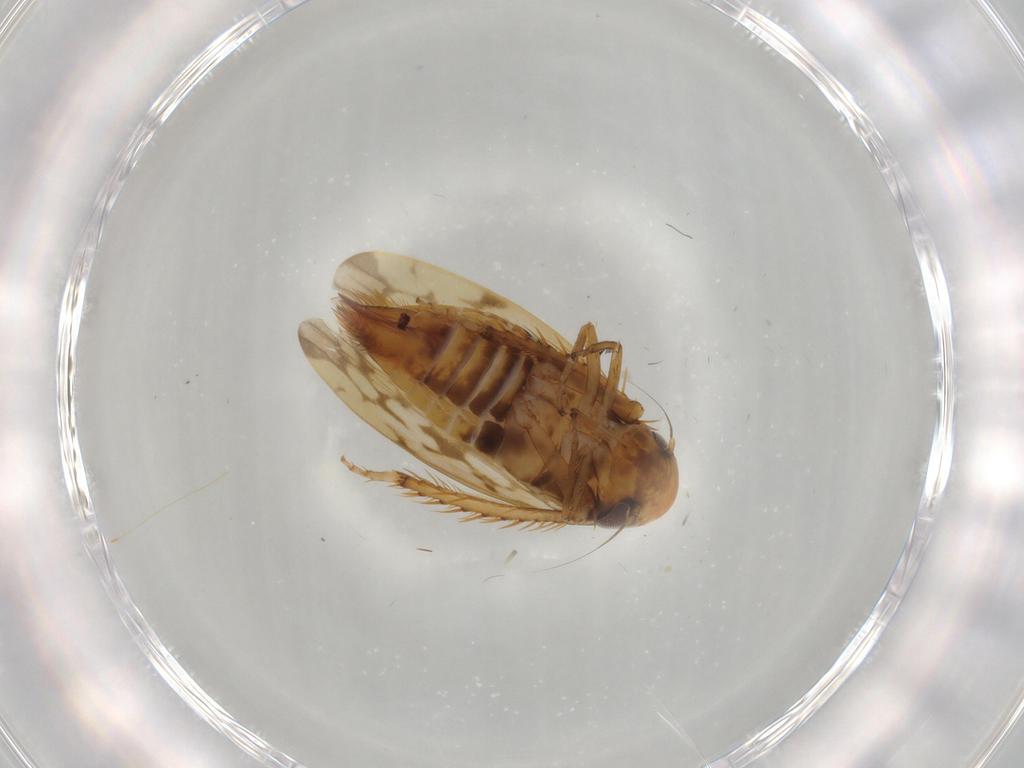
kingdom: Animalia
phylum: Arthropoda
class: Insecta
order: Hemiptera
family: Cicadellidae
